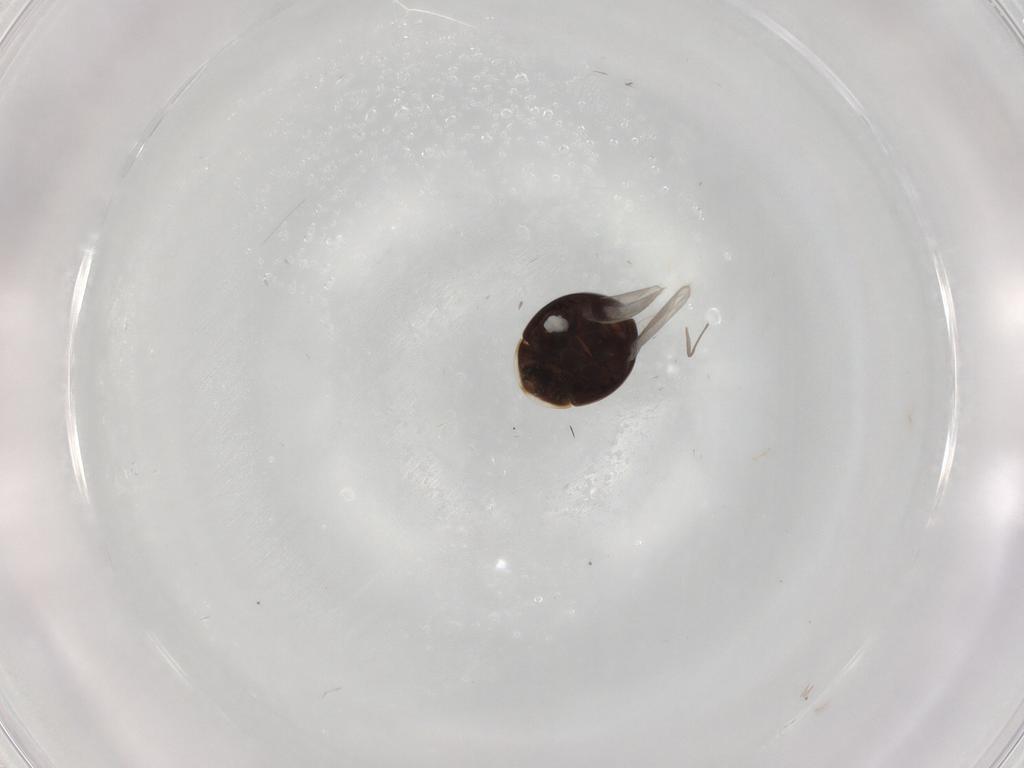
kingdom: Animalia
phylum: Arthropoda
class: Insecta
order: Coleoptera
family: Corylophidae
